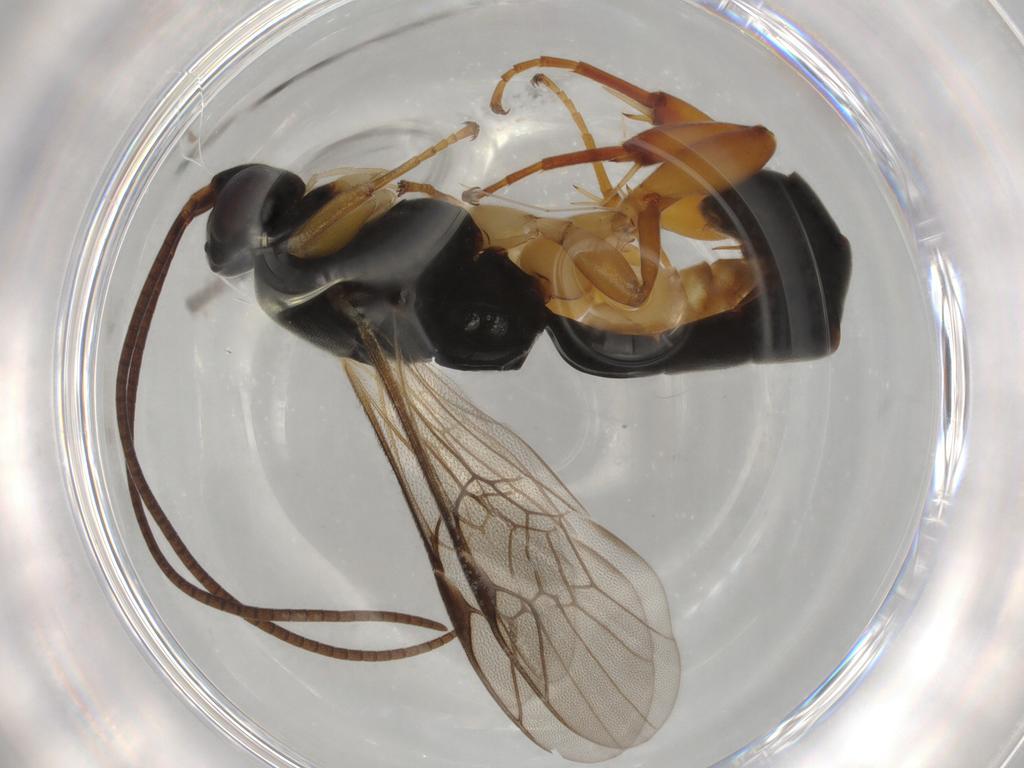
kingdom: Animalia
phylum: Arthropoda
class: Insecta
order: Hymenoptera
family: Ichneumonidae
